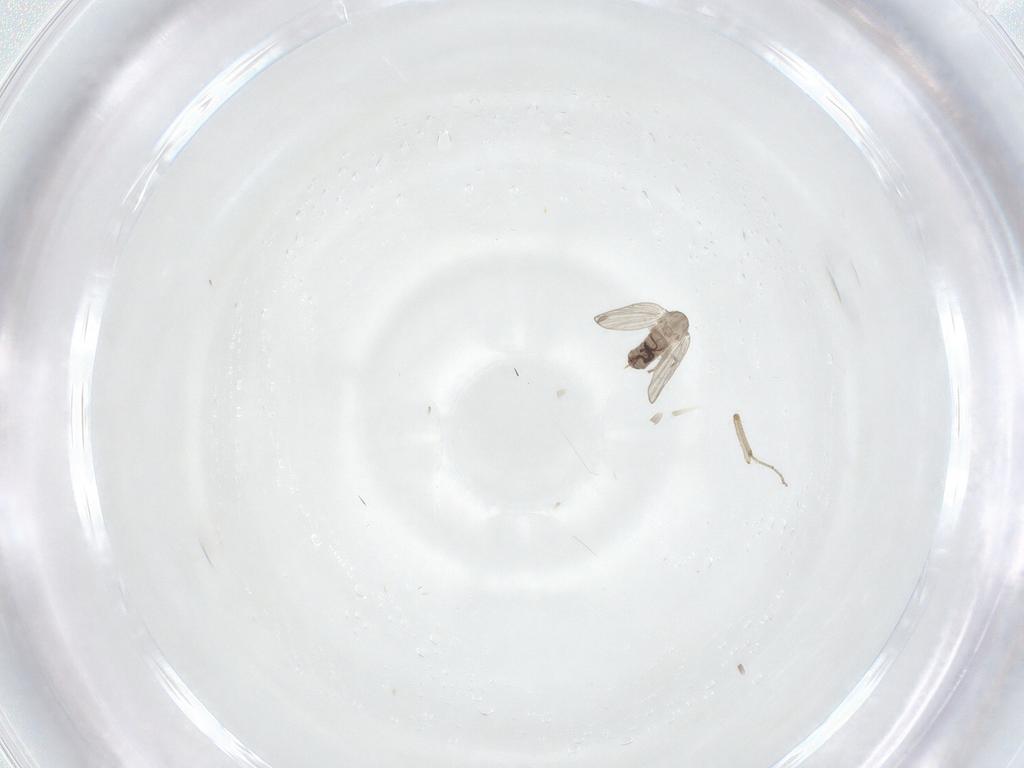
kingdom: Animalia
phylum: Arthropoda
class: Insecta
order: Diptera
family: Psychodidae
